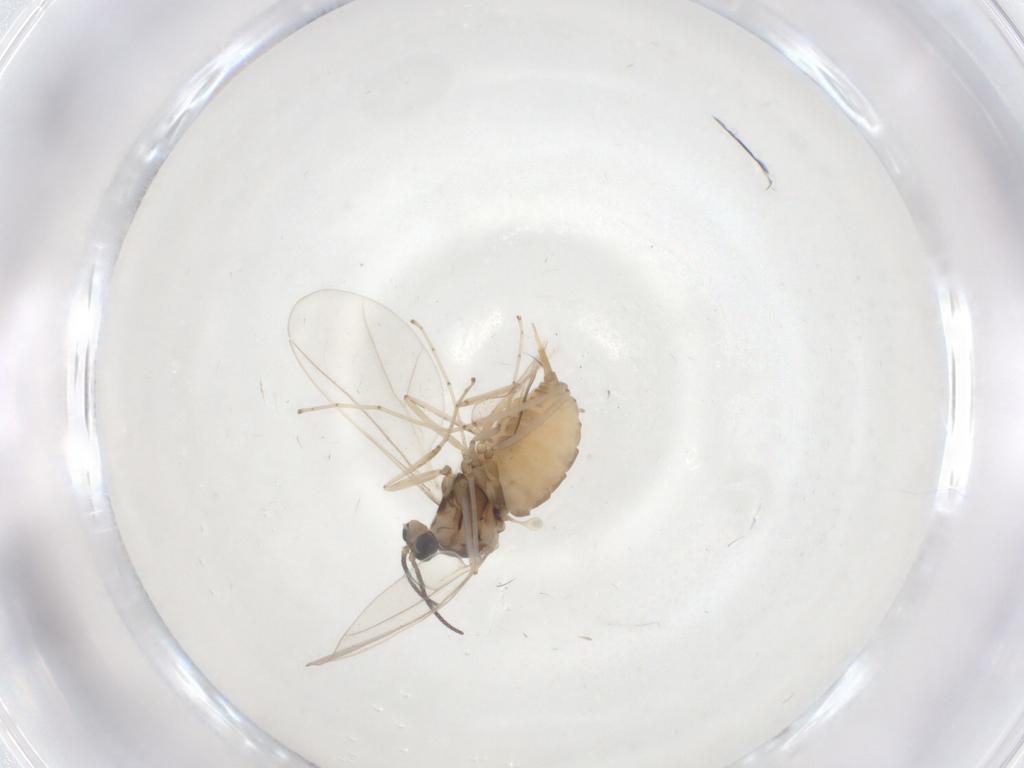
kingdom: Animalia
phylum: Arthropoda
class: Insecta
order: Diptera
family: Cecidomyiidae
